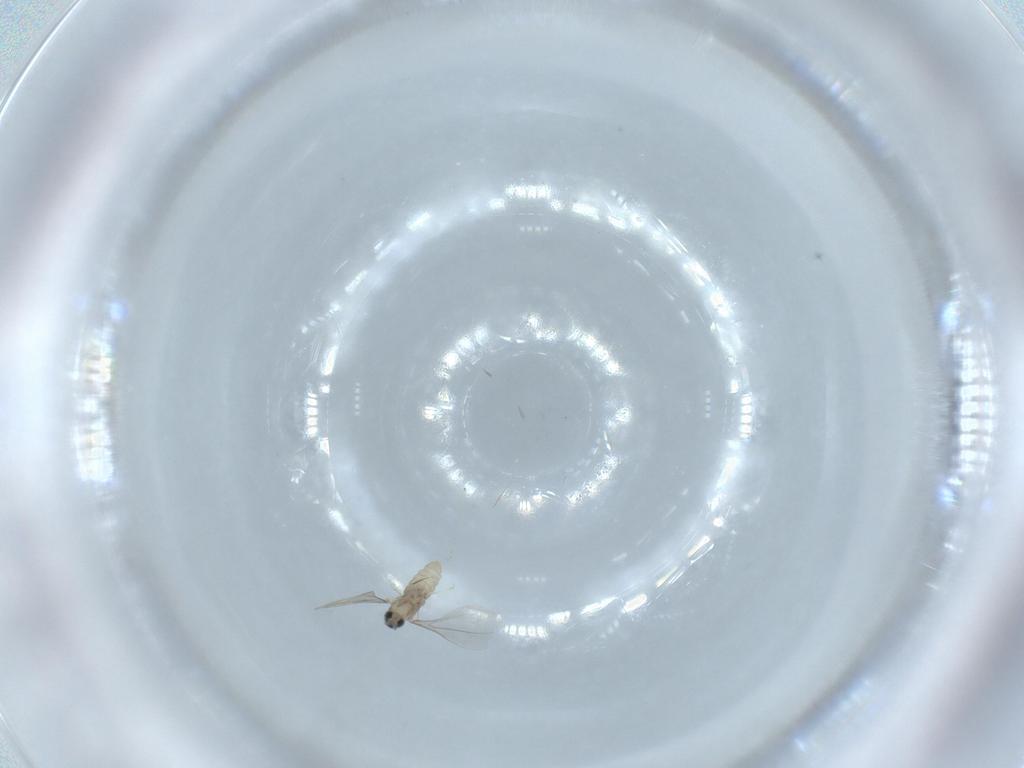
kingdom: Animalia
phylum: Arthropoda
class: Insecta
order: Diptera
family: Cecidomyiidae
